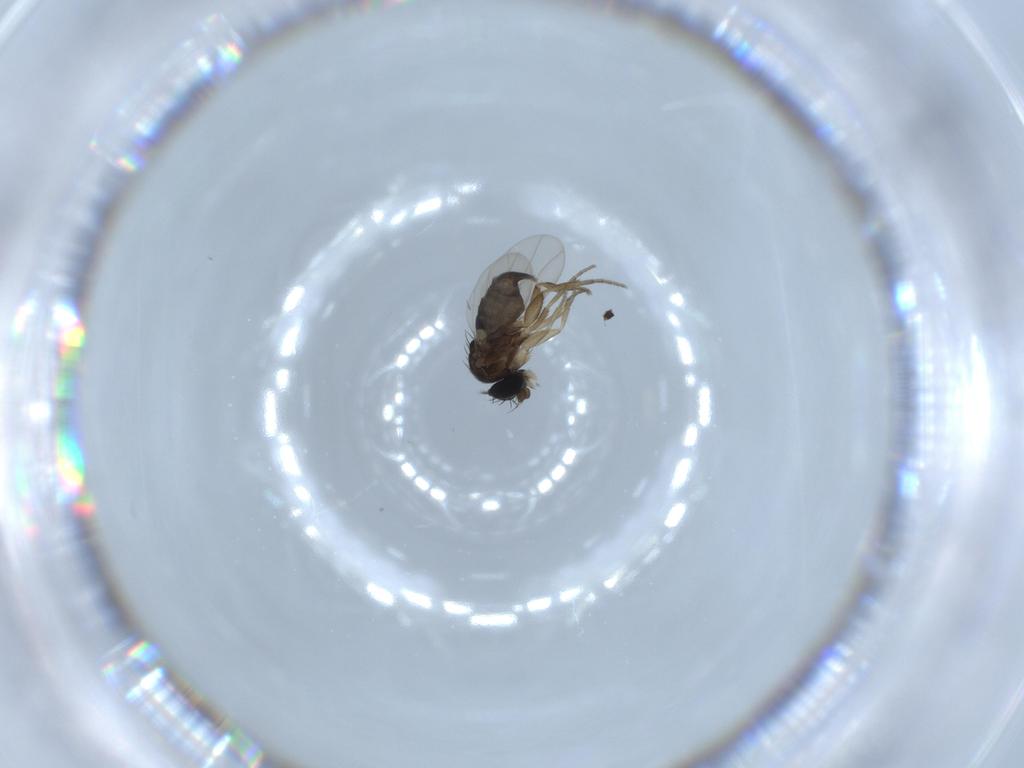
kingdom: Animalia
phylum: Arthropoda
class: Insecta
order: Diptera
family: Phoridae
